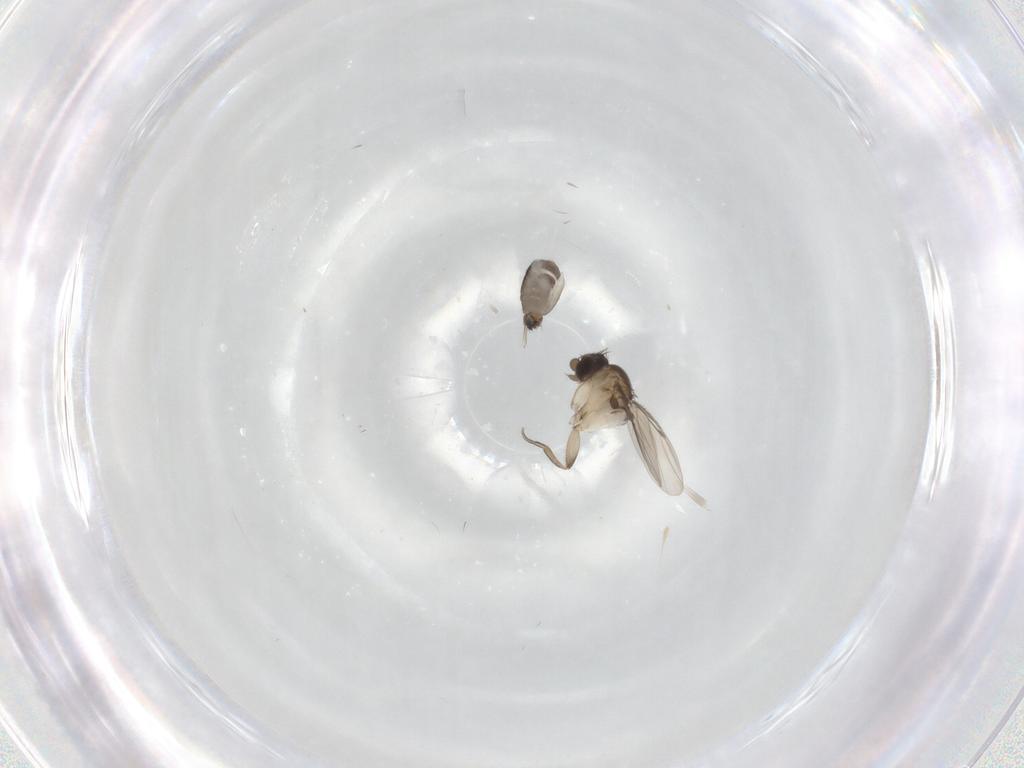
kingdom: Animalia
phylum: Arthropoda
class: Insecta
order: Diptera
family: Phoridae
